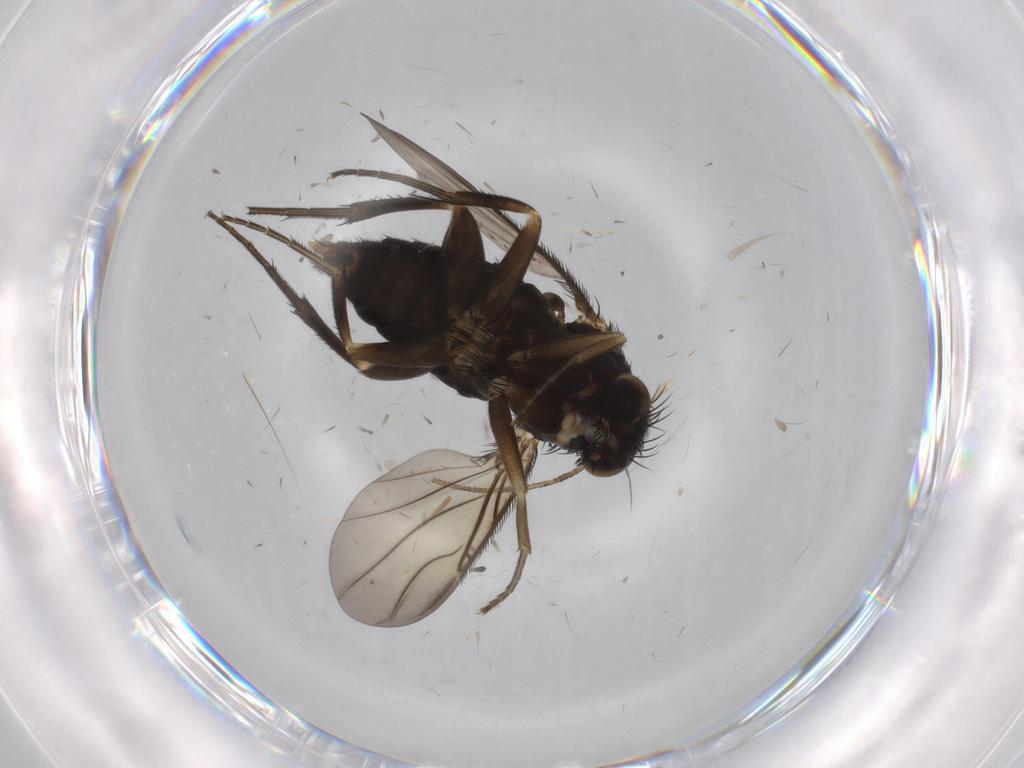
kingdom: Animalia
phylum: Arthropoda
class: Insecta
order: Diptera
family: Phoridae
